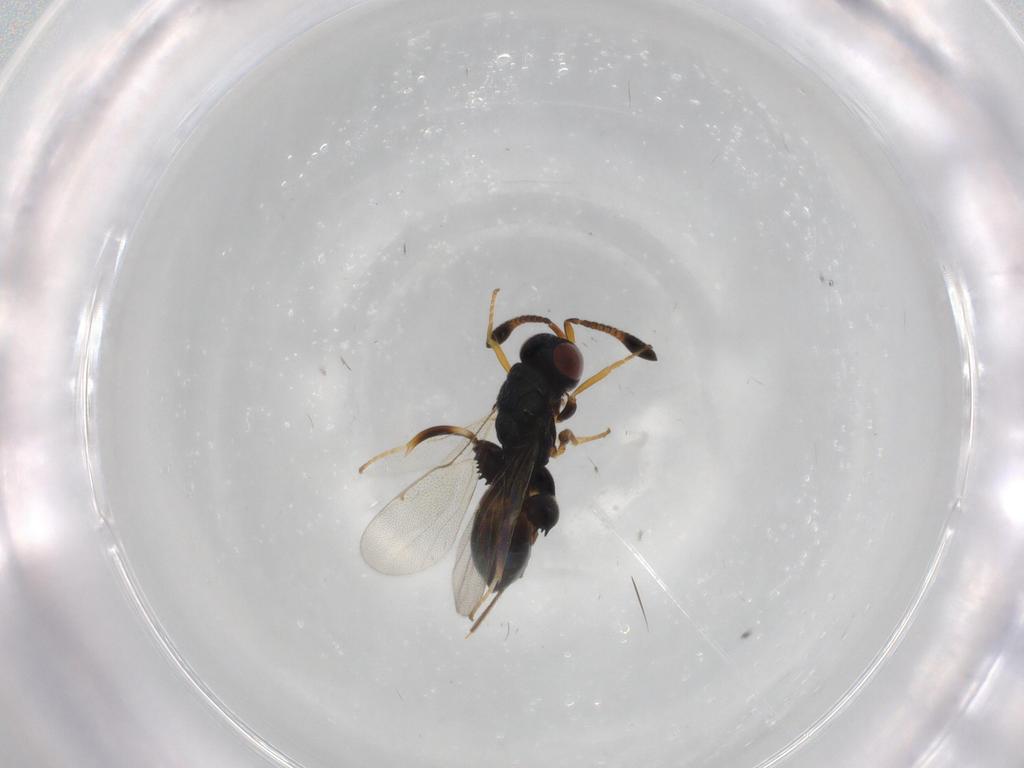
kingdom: Animalia
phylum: Arthropoda
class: Insecta
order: Hymenoptera
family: Torymidae
